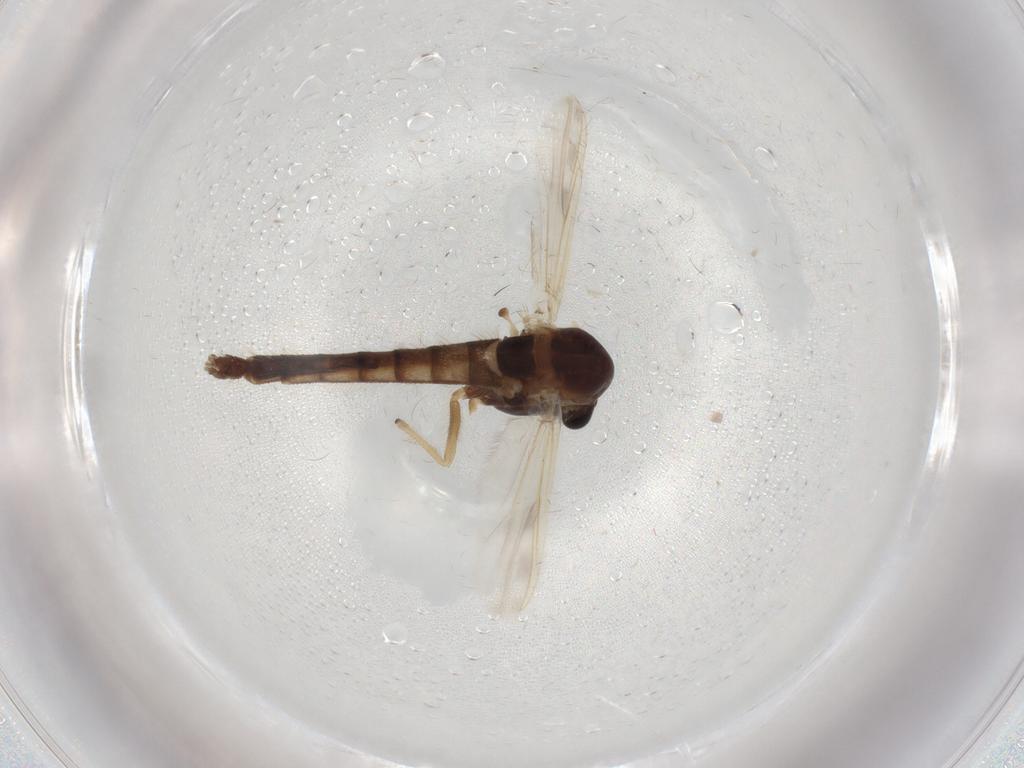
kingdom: Animalia
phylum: Arthropoda
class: Insecta
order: Diptera
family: Chironomidae
